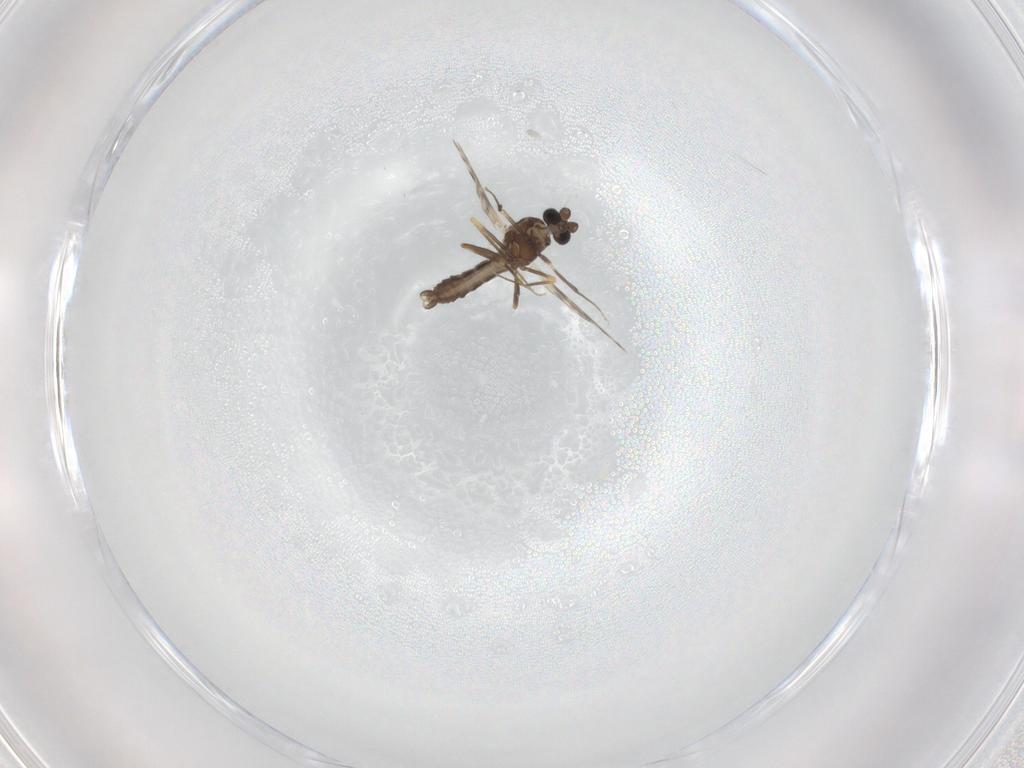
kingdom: Animalia
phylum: Arthropoda
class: Insecta
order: Diptera
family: Ceratopogonidae
